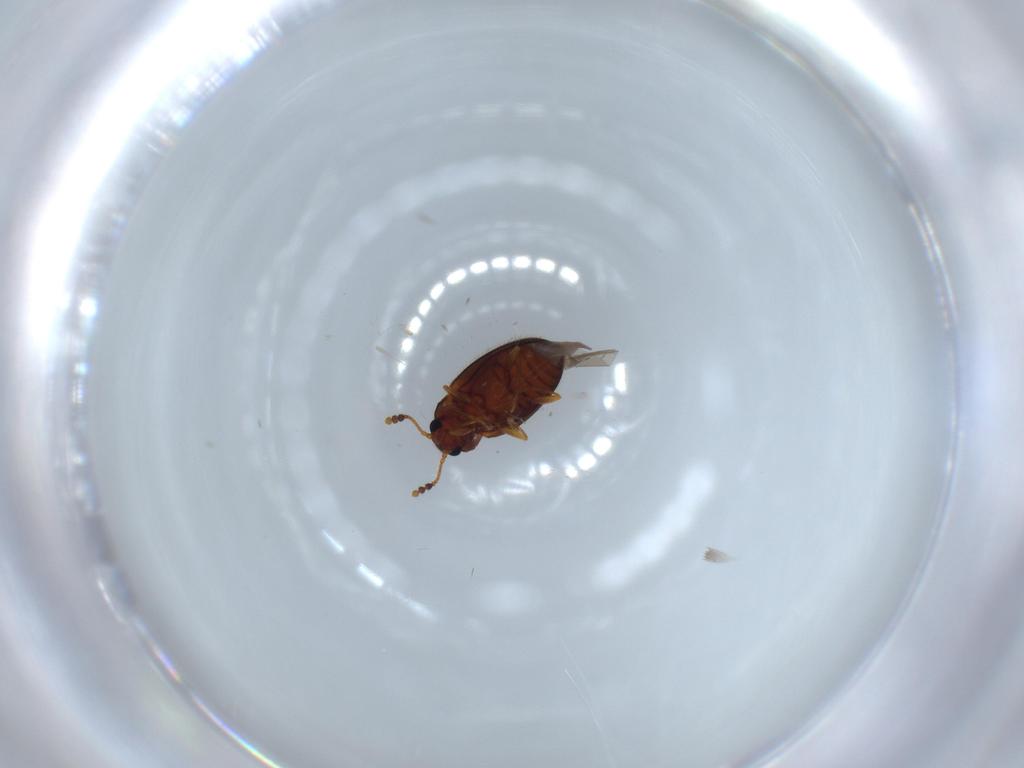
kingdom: Animalia
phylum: Arthropoda
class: Insecta
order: Coleoptera
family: Erotylidae
